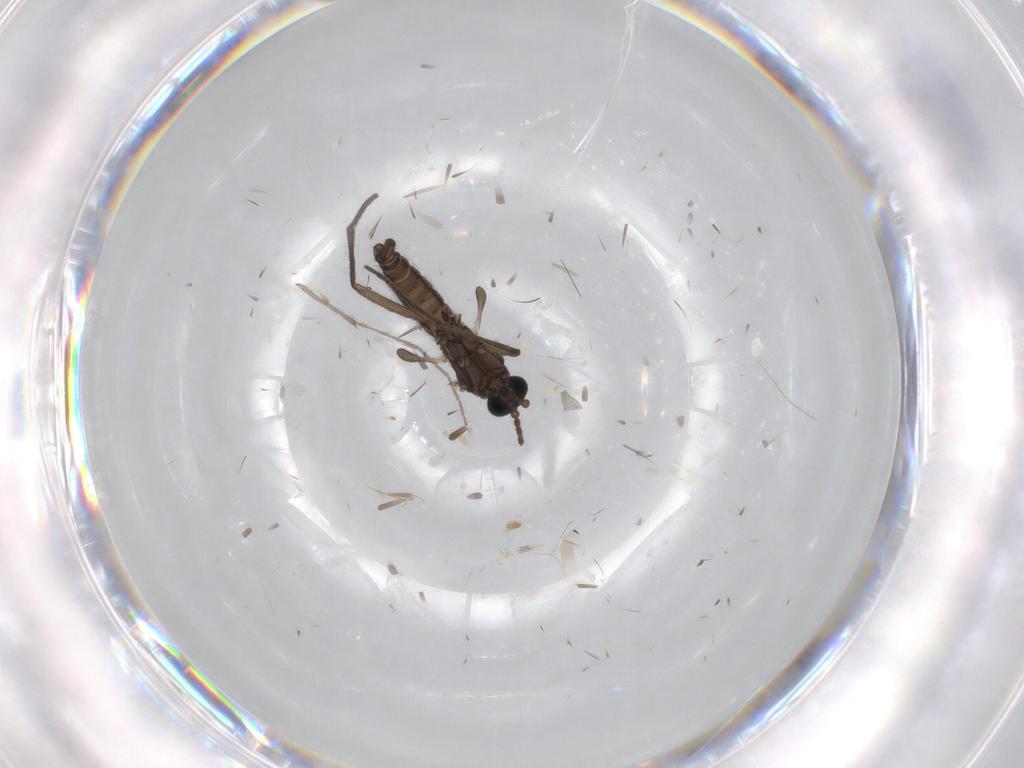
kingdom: Animalia
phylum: Arthropoda
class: Insecta
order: Diptera
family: Sciaridae
